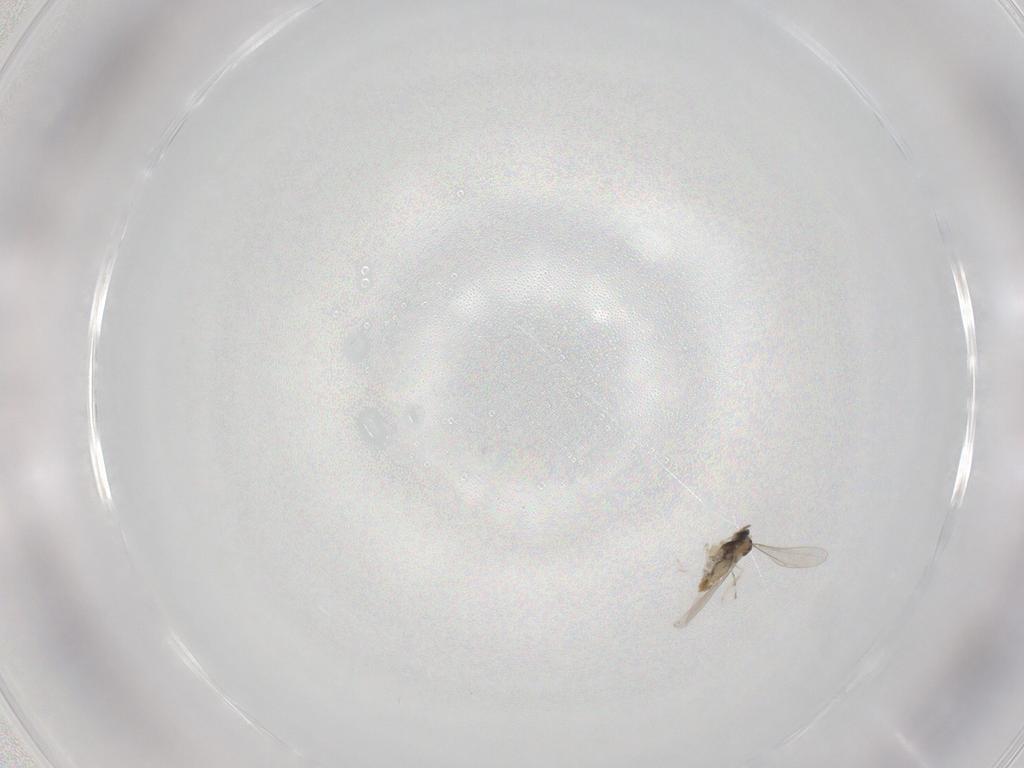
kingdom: Animalia
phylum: Arthropoda
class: Insecta
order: Diptera
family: Cecidomyiidae
